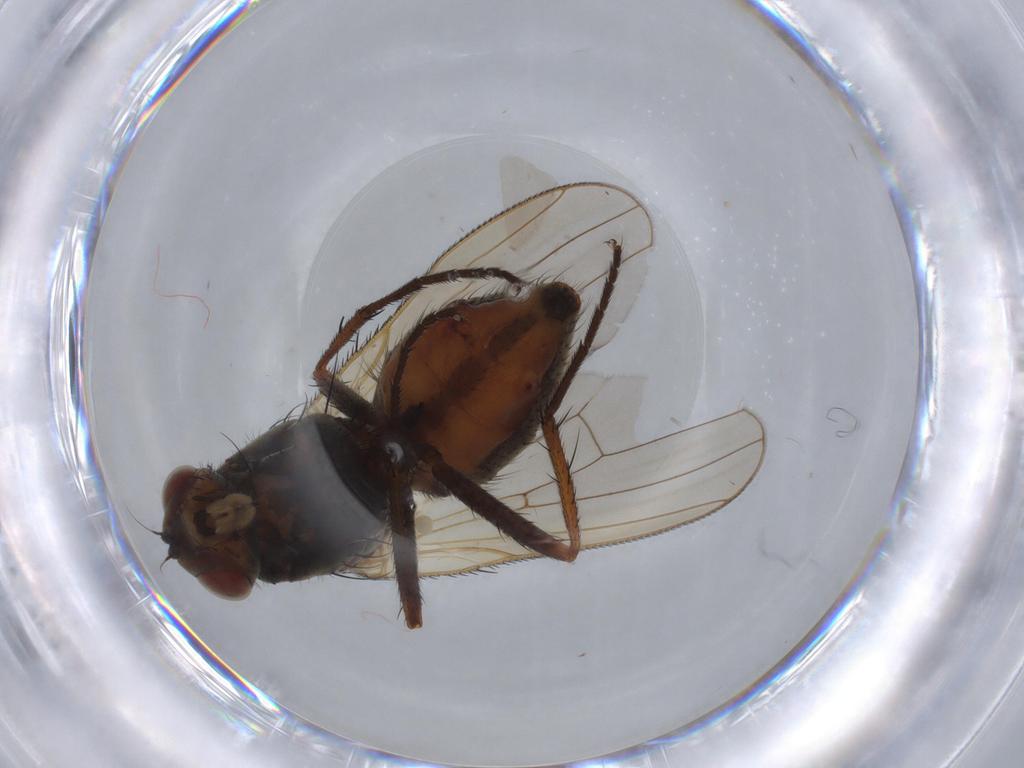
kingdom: Animalia
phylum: Arthropoda
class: Insecta
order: Diptera
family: Anthomyiidae
